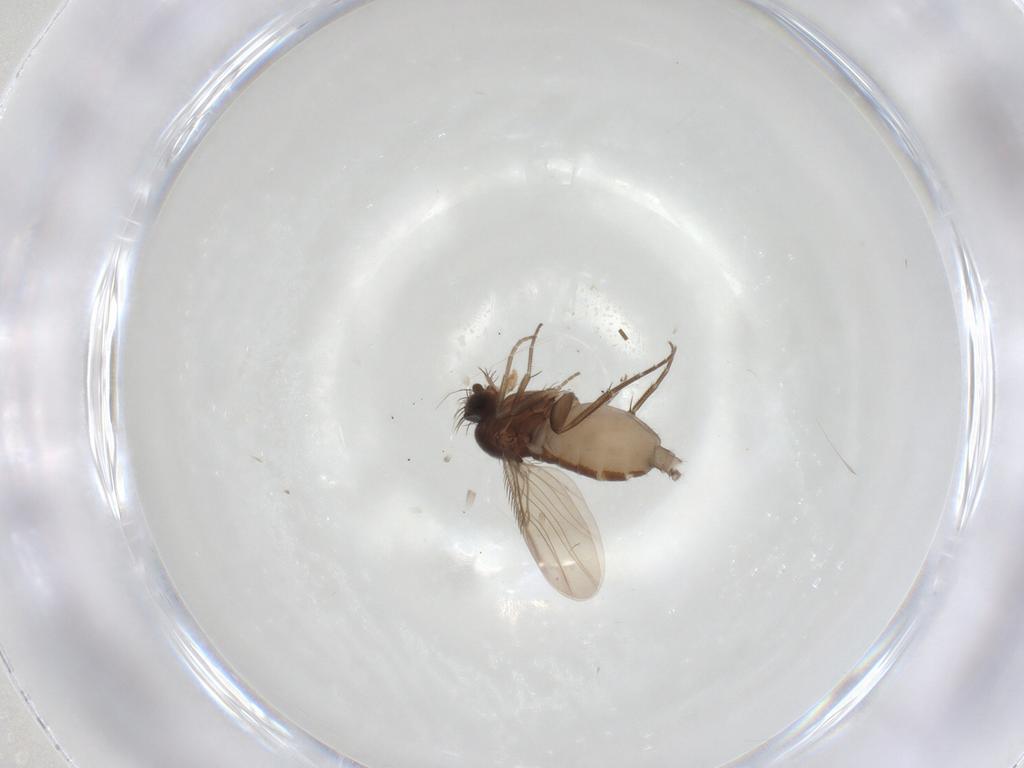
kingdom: Animalia
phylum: Arthropoda
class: Insecta
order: Diptera
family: Phoridae
